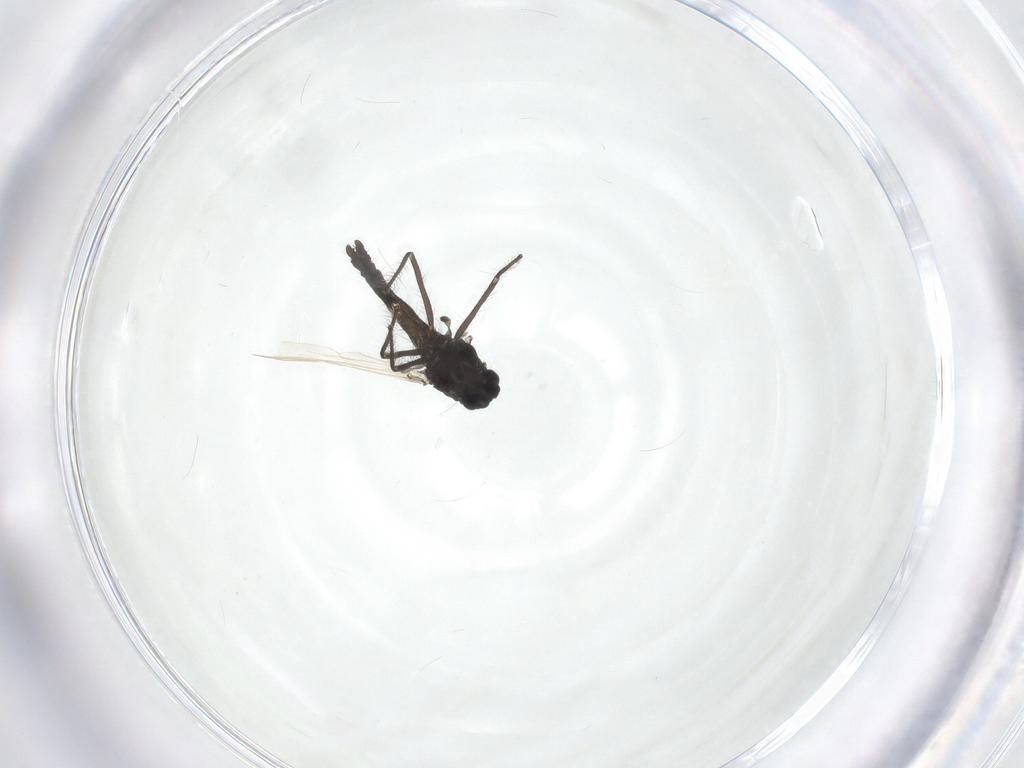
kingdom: Animalia
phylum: Arthropoda
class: Insecta
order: Diptera
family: Chironomidae
